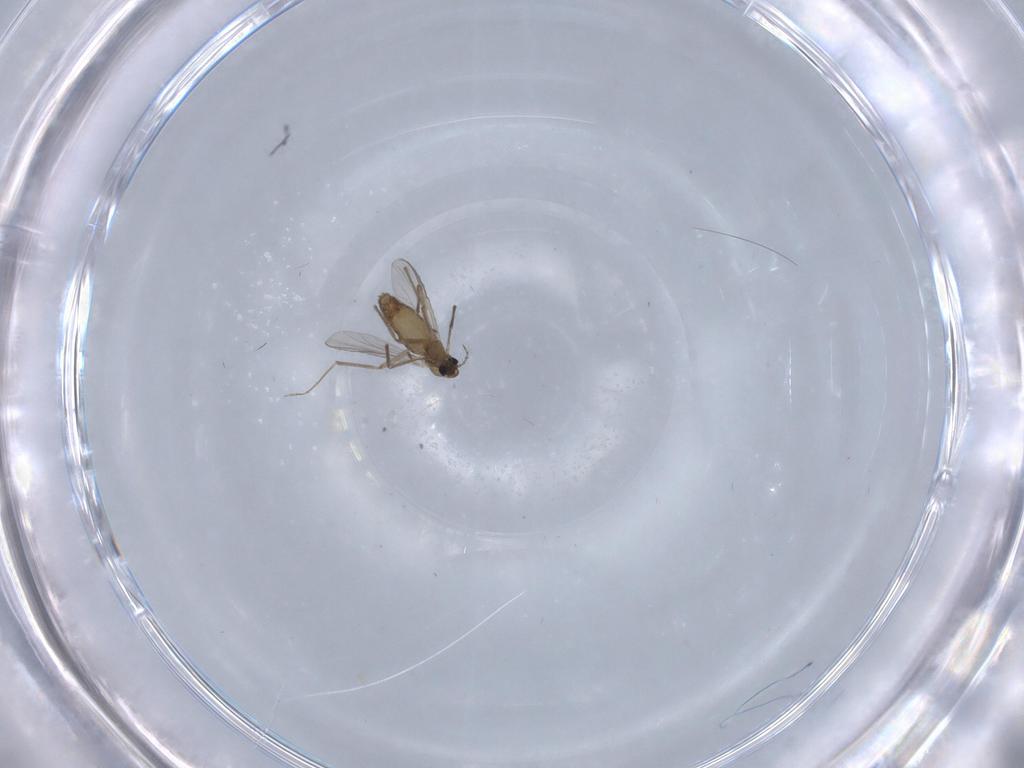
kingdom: Animalia
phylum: Arthropoda
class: Insecta
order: Diptera
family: Chironomidae
